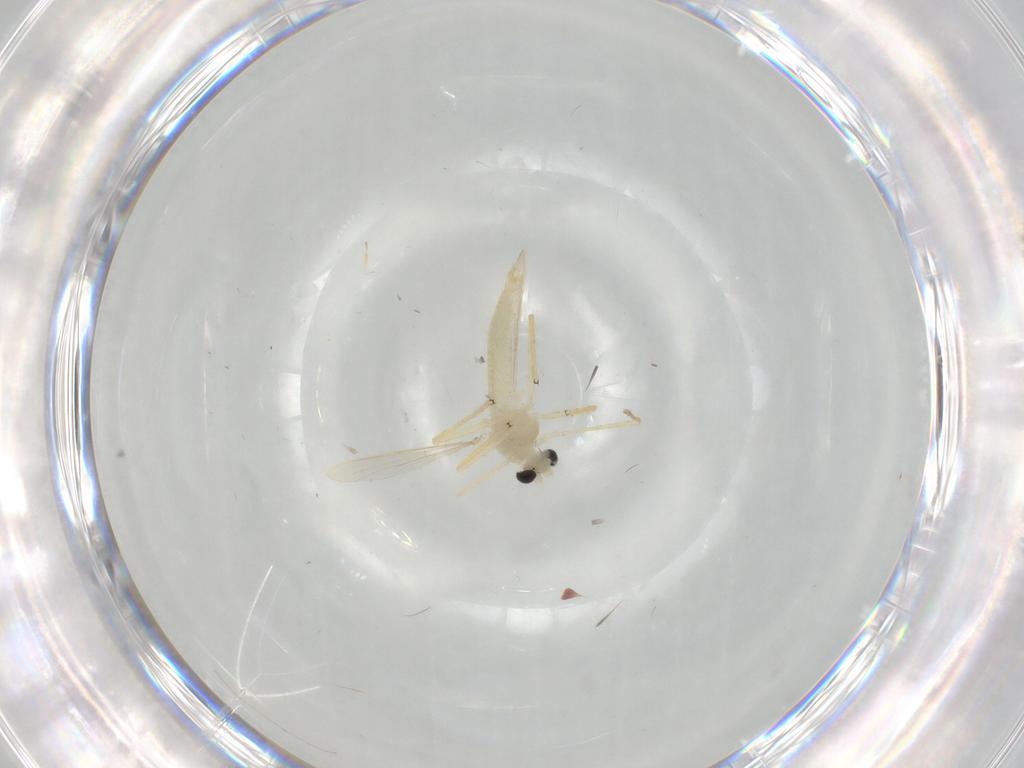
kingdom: Animalia
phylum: Arthropoda
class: Insecta
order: Diptera
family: Chironomidae
